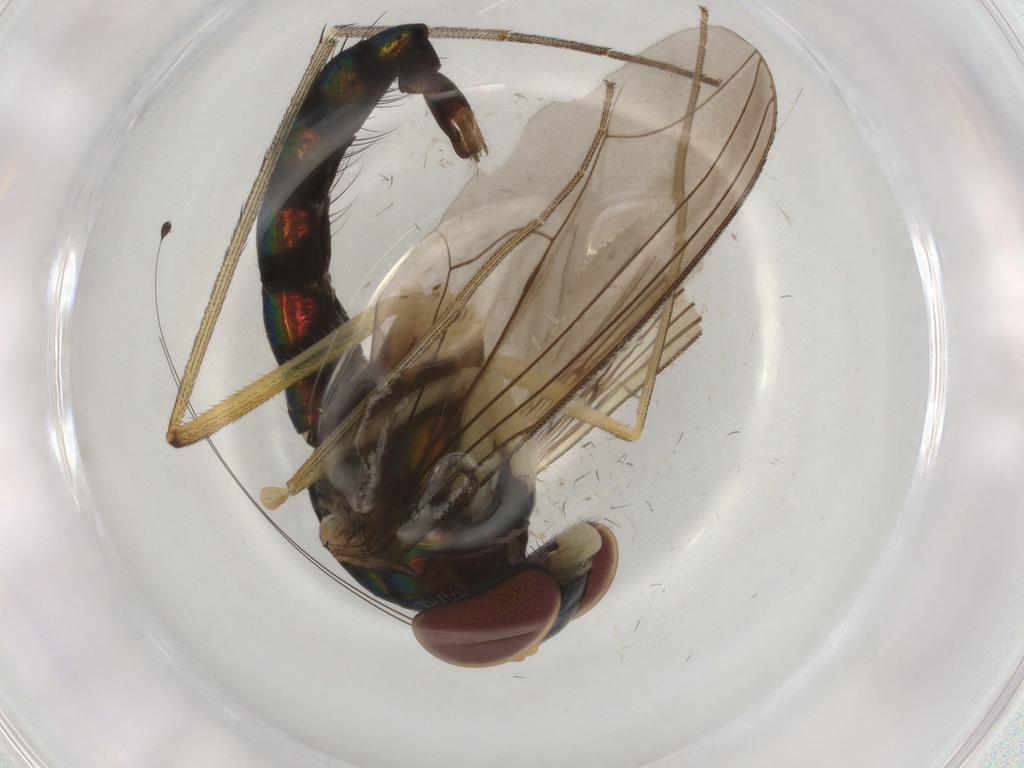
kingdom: Animalia
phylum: Arthropoda
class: Insecta
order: Diptera
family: Dolichopodidae
